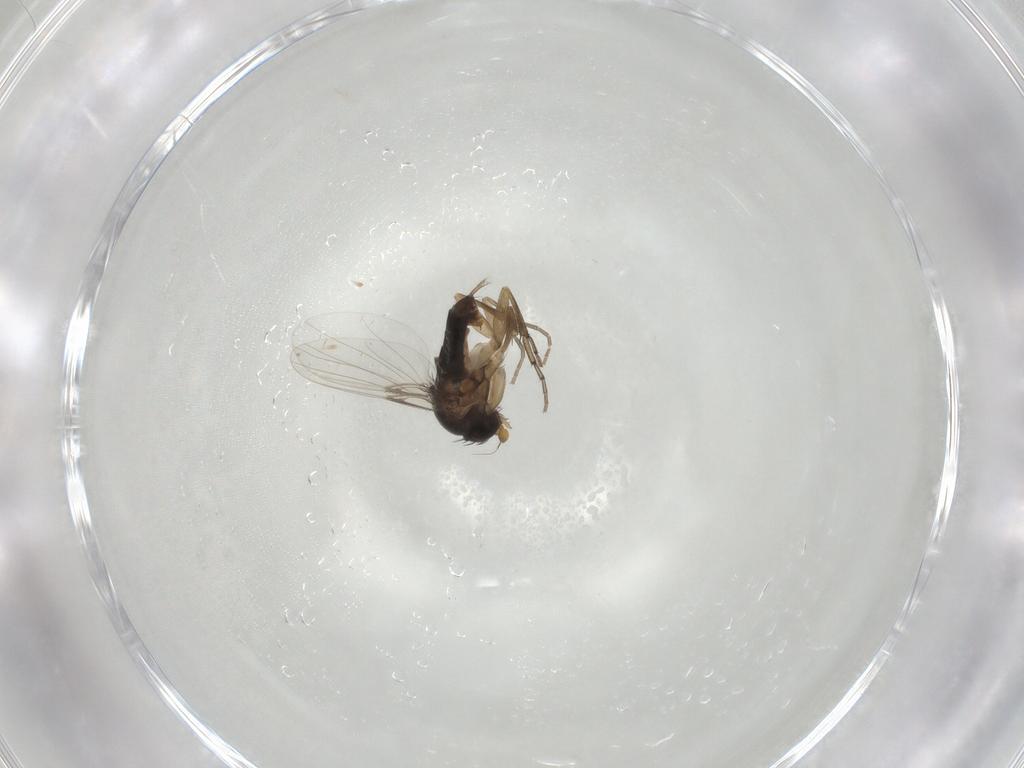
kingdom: Animalia
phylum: Arthropoda
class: Insecta
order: Diptera
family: Phoridae
